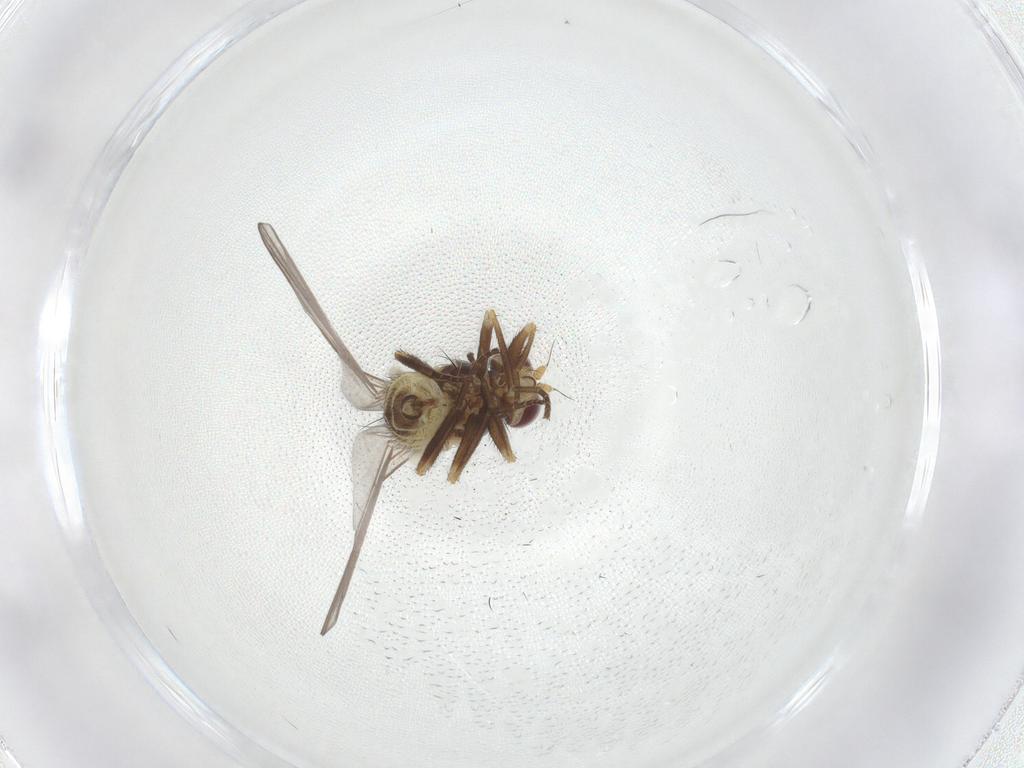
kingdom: Animalia
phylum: Arthropoda
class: Insecta
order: Diptera
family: Agromyzidae
